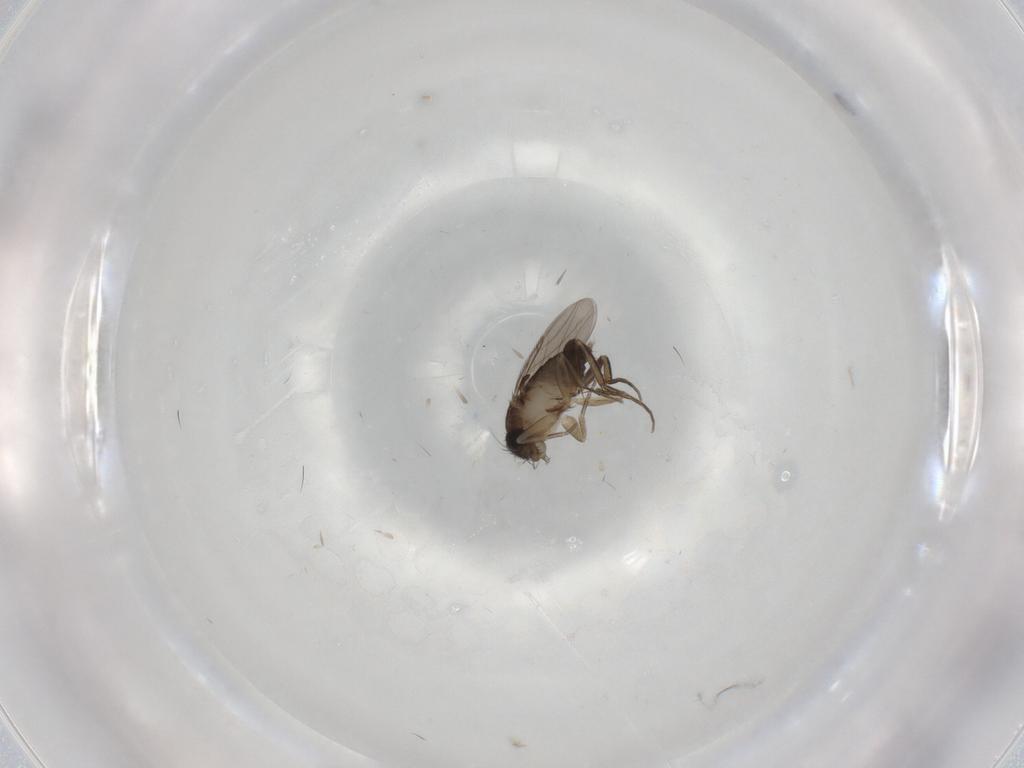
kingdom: Animalia
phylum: Arthropoda
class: Insecta
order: Diptera
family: Phoridae
